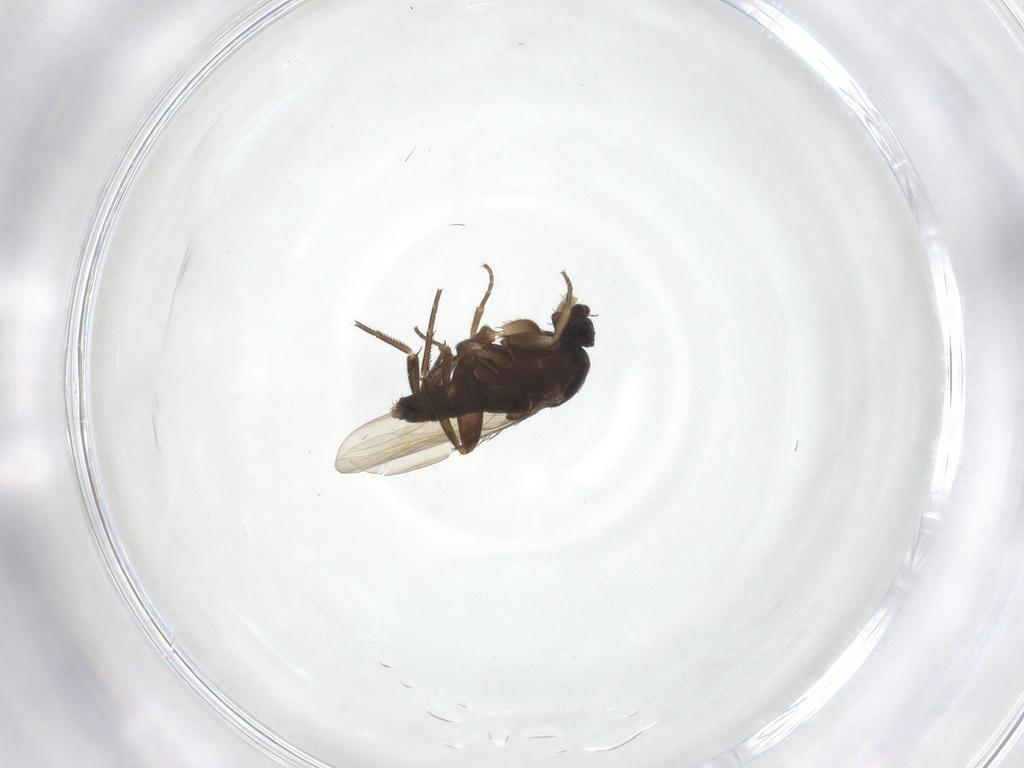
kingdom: Animalia
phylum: Arthropoda
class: Insecta
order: Diptera
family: Phoridae
